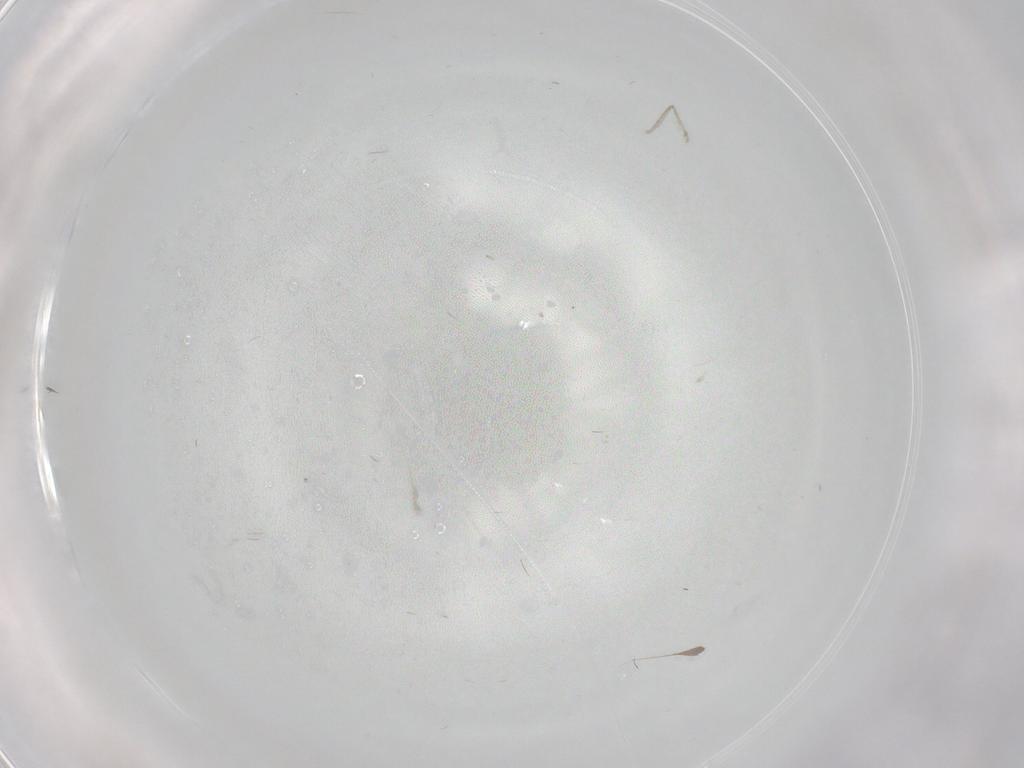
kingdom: Animalia
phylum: Arthropoda
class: Insecta
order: Diptera
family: Cecidomyiidae
